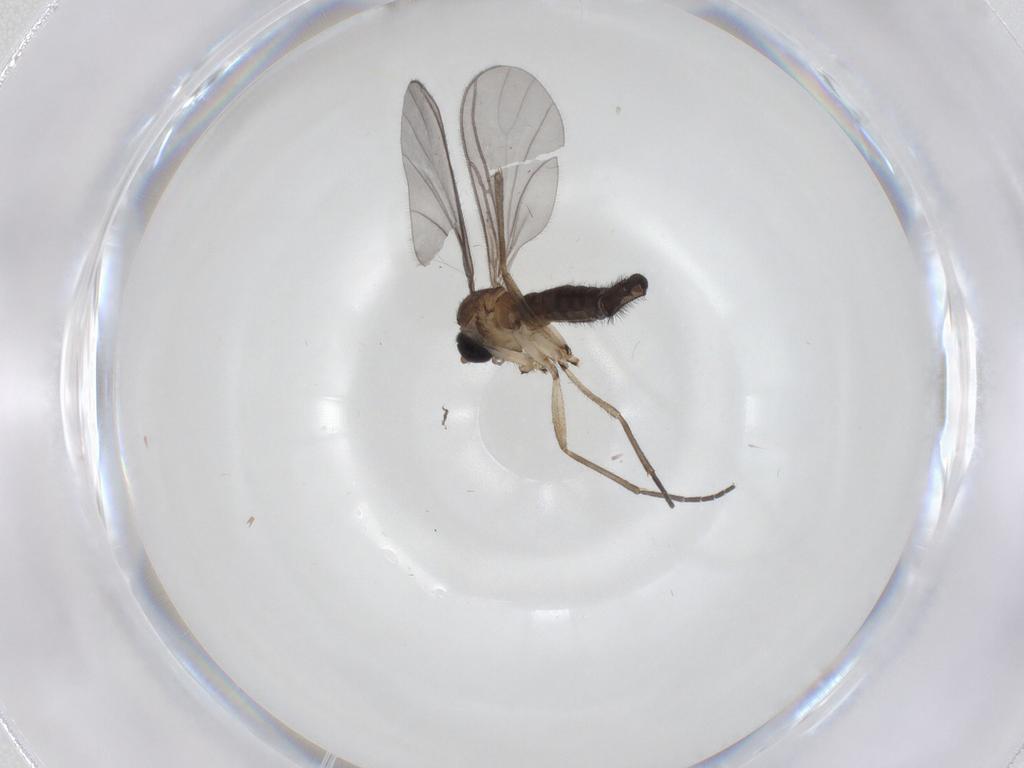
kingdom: Animalia
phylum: Arthropoda
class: Insecta
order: Diptera
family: Sciaridae
